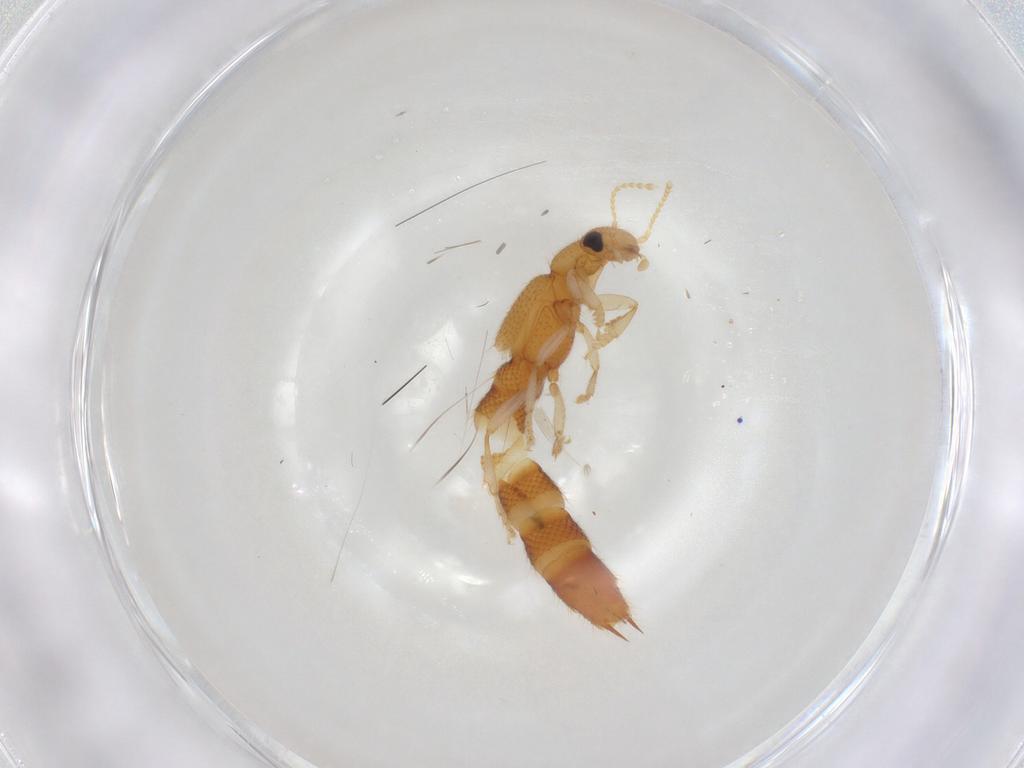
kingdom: Animalia
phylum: Arthropoda
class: Insecta
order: Coleoptera
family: Staphylinidae
